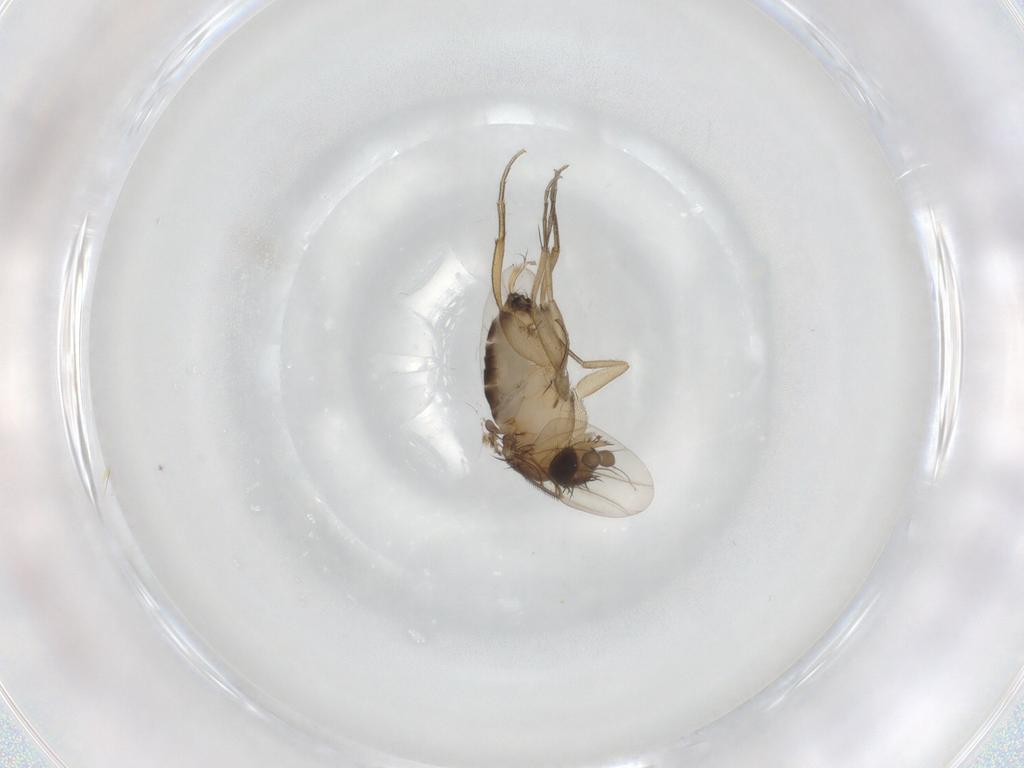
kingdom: Animalia
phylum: Arthropoda
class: Insecta
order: Diptera
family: Phoridae
